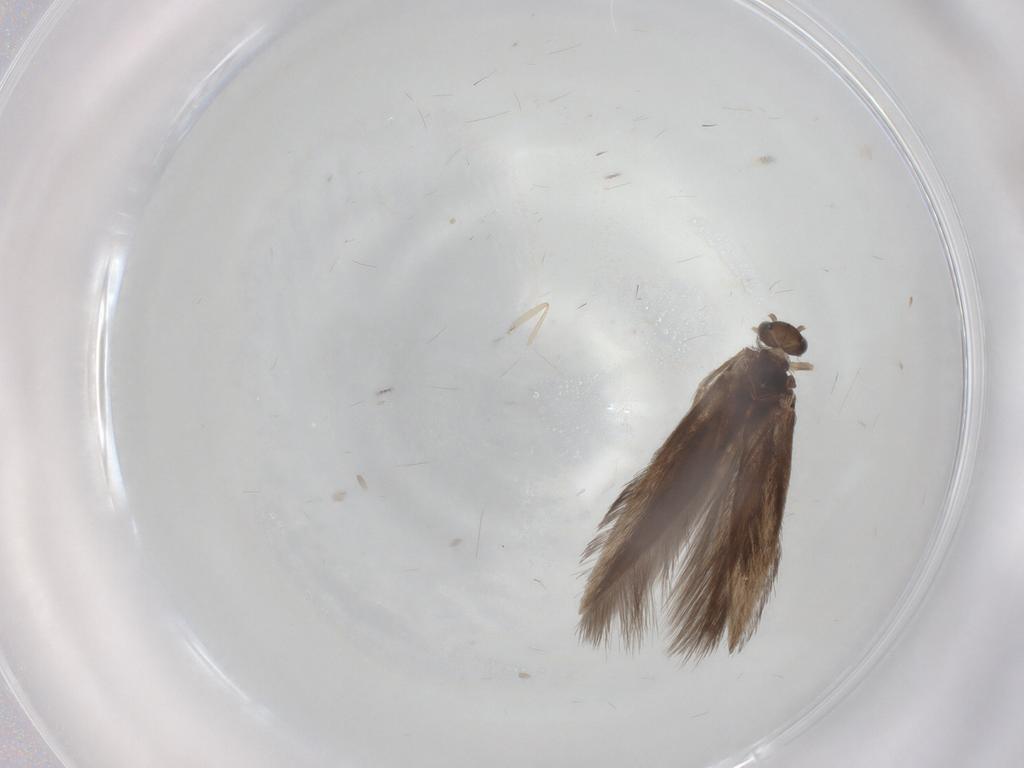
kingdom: Animalia
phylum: Arthropoda
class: Insecta
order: Trichoptera
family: Hydroptilidae
